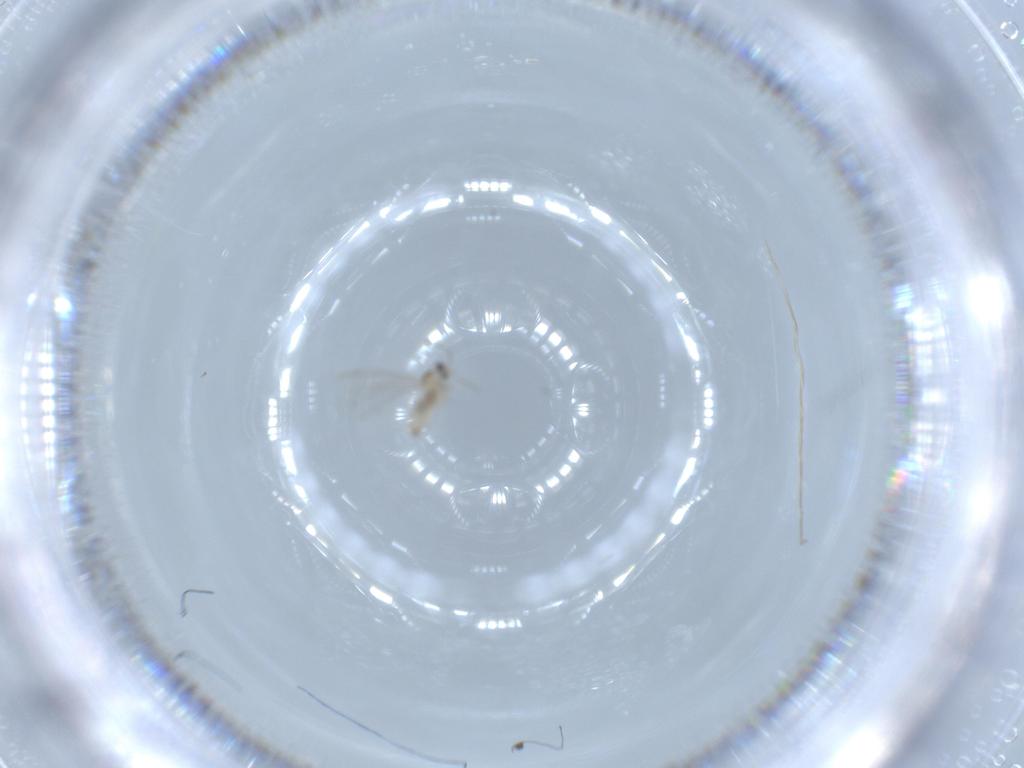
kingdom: Animalia
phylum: Arthropoda
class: Insecta
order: Diptera
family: Cecidomyiidae
